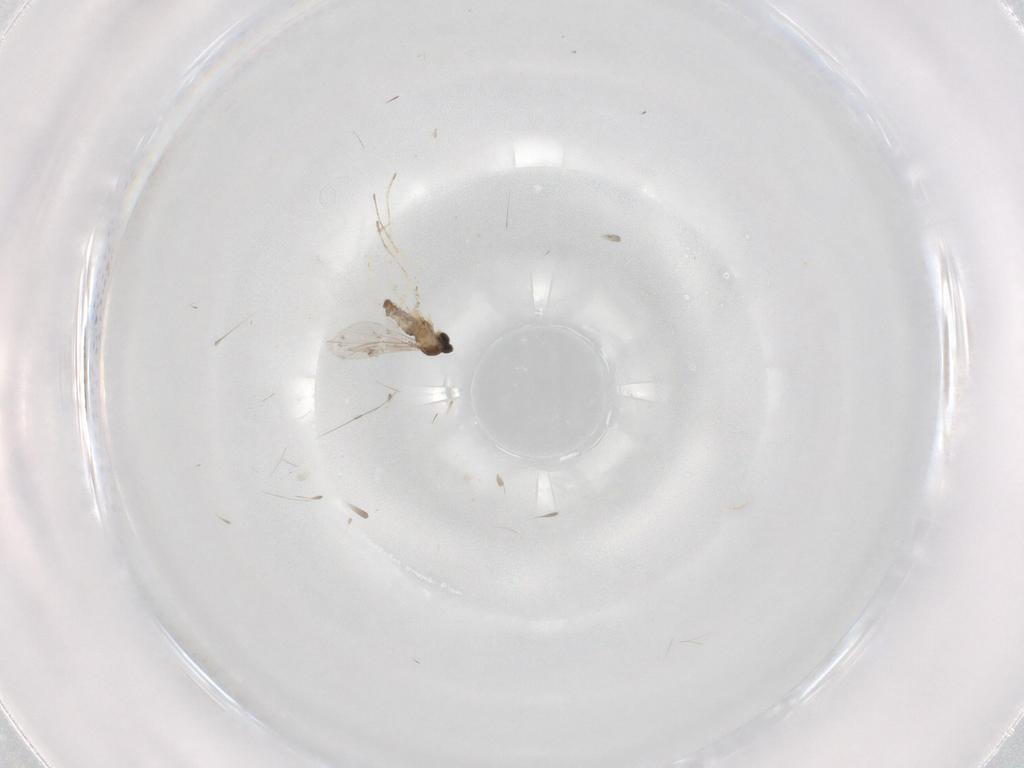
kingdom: Animalia
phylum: Arthropoda
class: Insecta
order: Diptera
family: Cecidomyiidae
